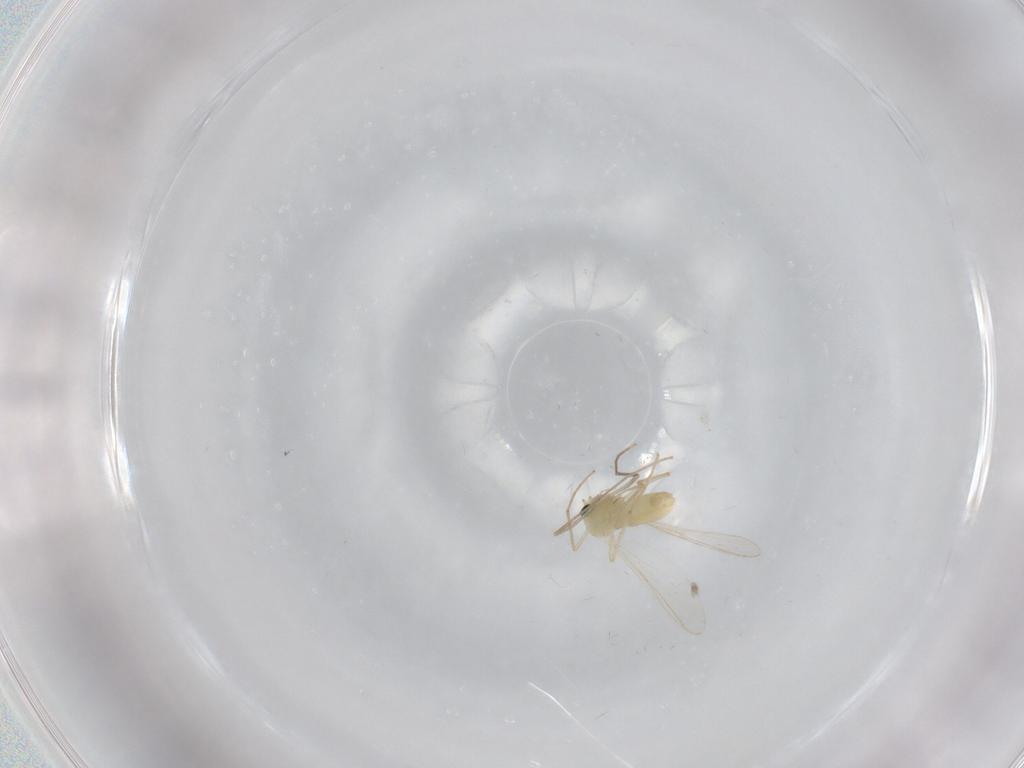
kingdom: Animalia
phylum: Arthropoda
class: Insecta
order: Diptera
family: Chironomidae
